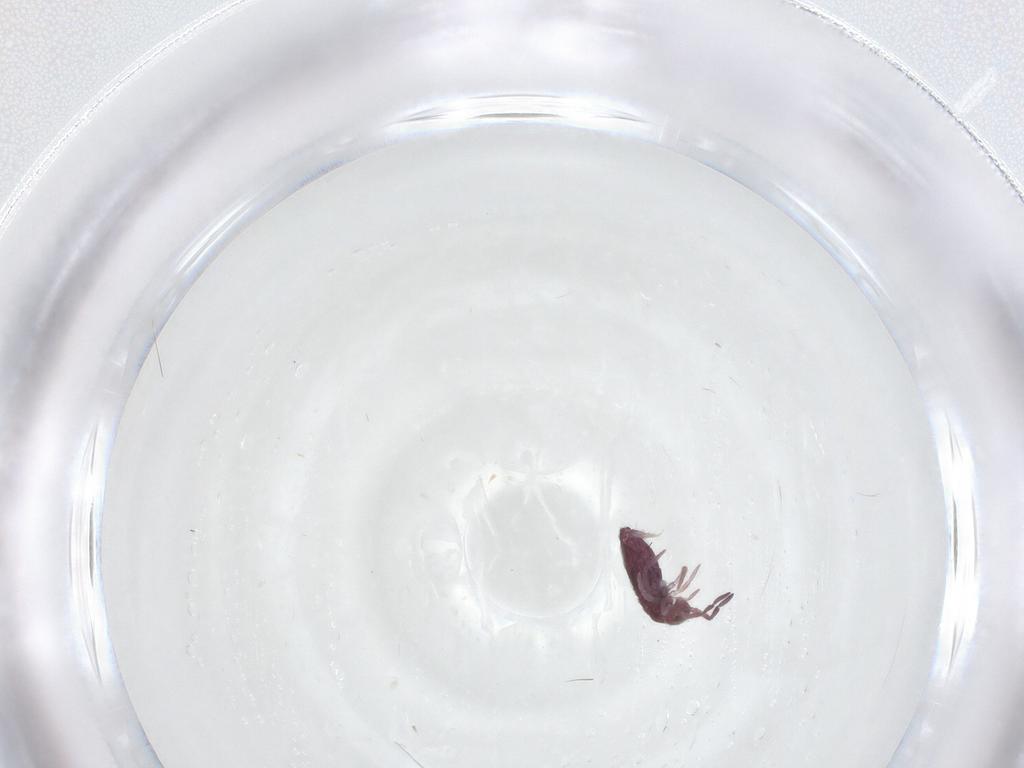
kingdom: Animalia
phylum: Arthropoda
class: Collembola
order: Entomobryomorpha
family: Entomobryidae
